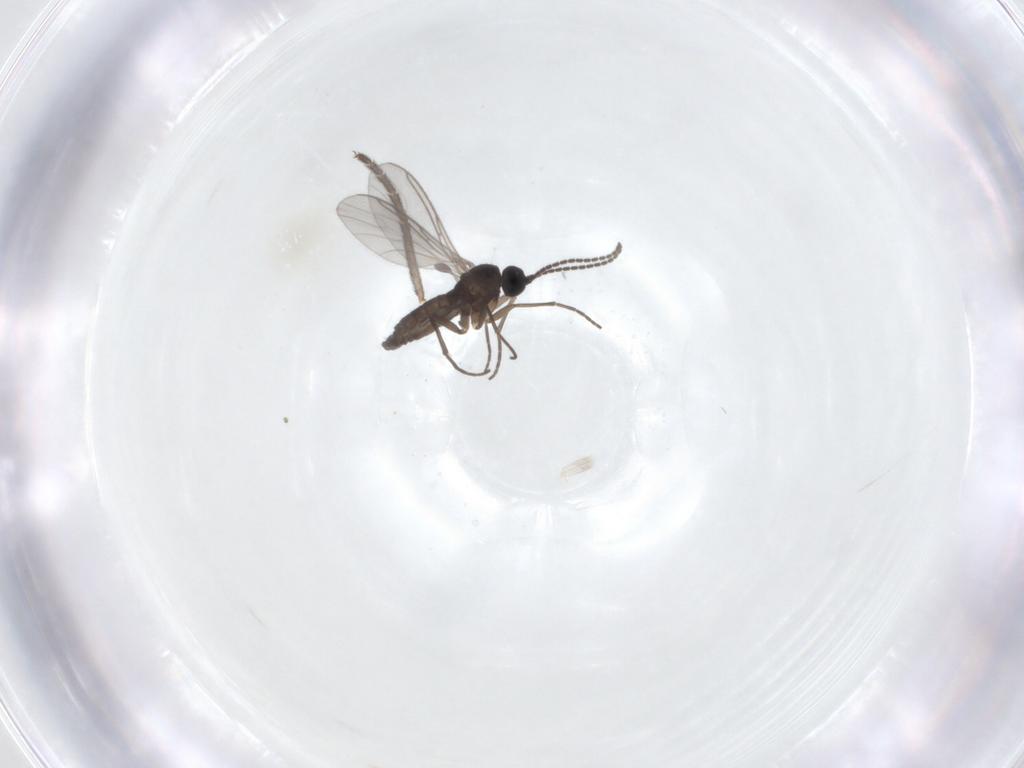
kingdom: Animalia
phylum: Arthropoda
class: Insecta
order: Diptera
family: Sciaridae
